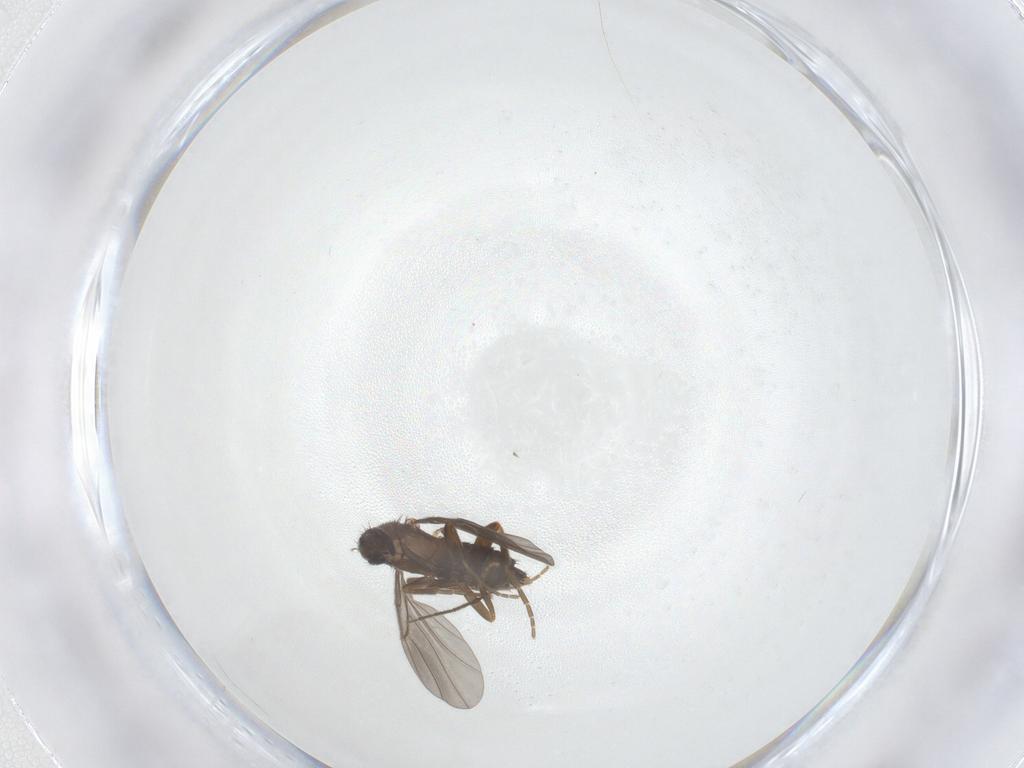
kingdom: Animalia
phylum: Arthropoda
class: Insecta
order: Diptera
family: Phoridae
